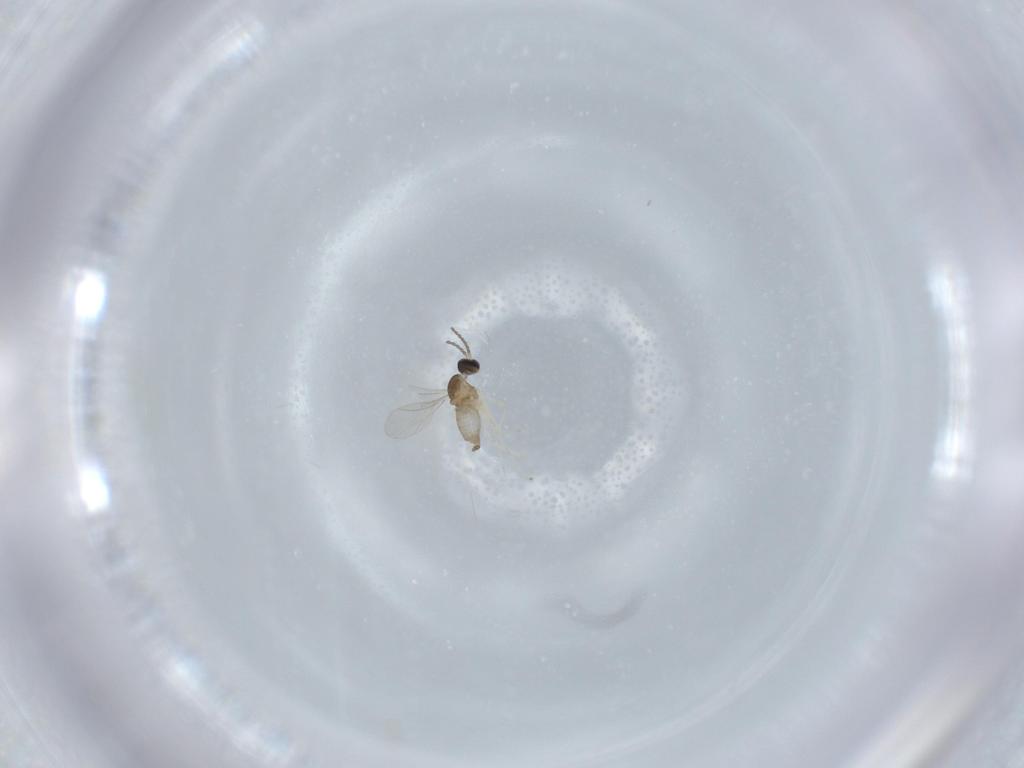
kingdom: Animalia
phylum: Arthropoda
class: Insecta
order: Diptera
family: Cecidomyiidae
